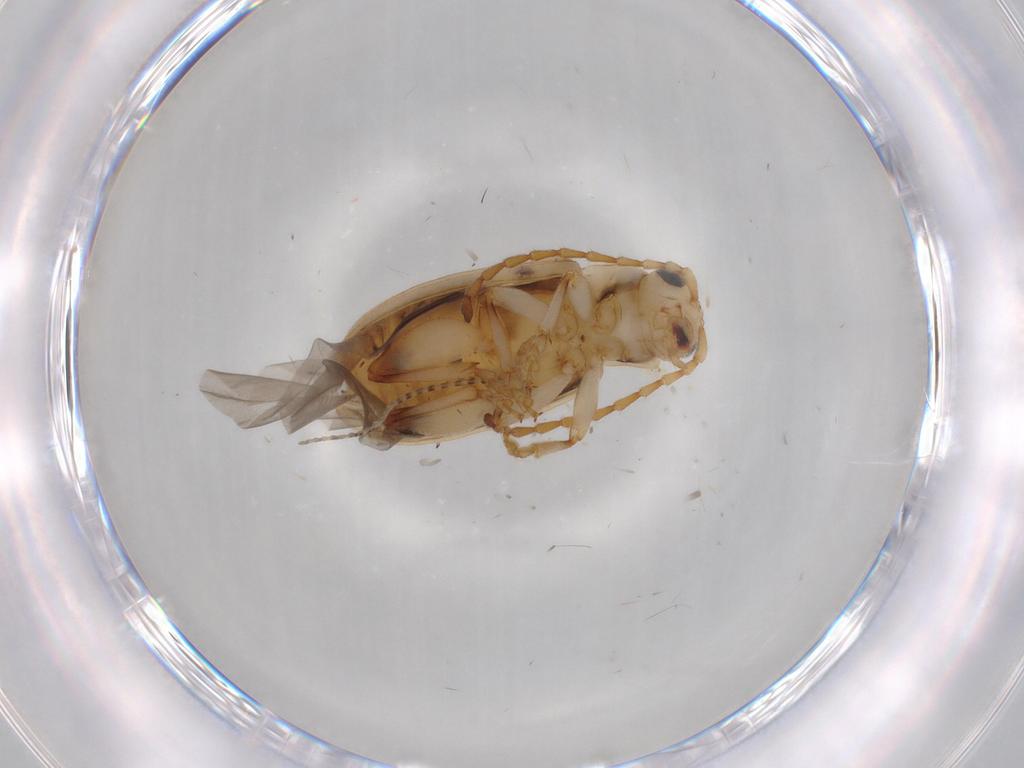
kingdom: Animalia
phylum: Arthropoda
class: Insecta
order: Coleoptera
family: Chrysomelidae
